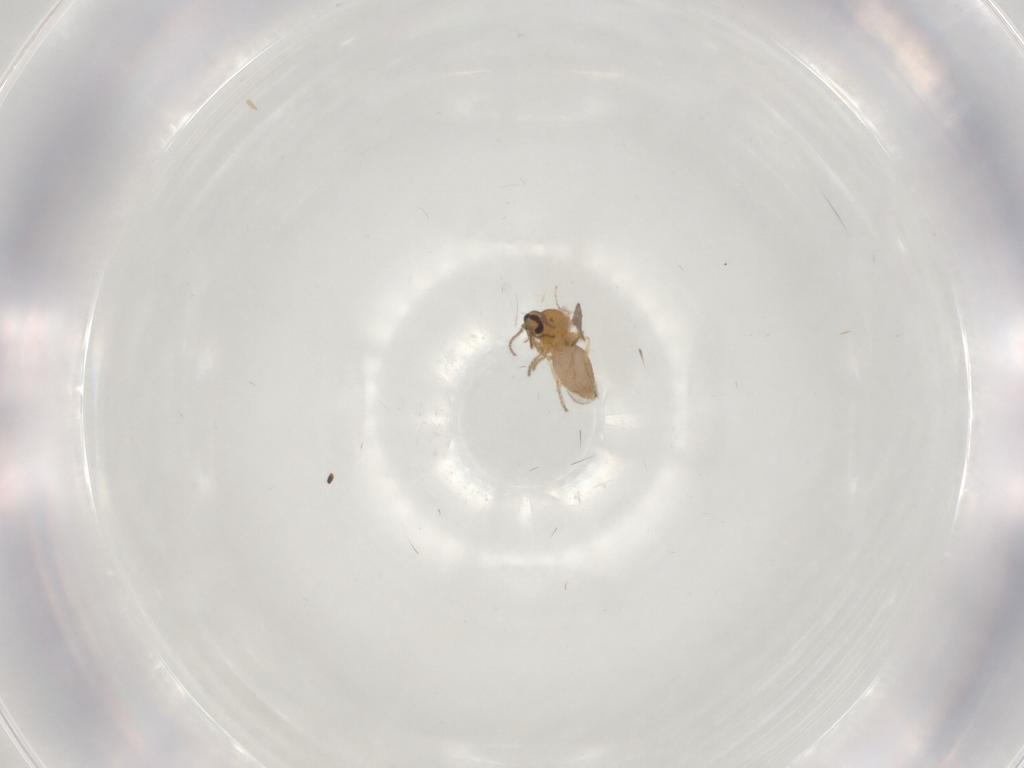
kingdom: Animalia
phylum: Arthropoda
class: Insecta
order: Diptera
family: Ceratopogonidae
